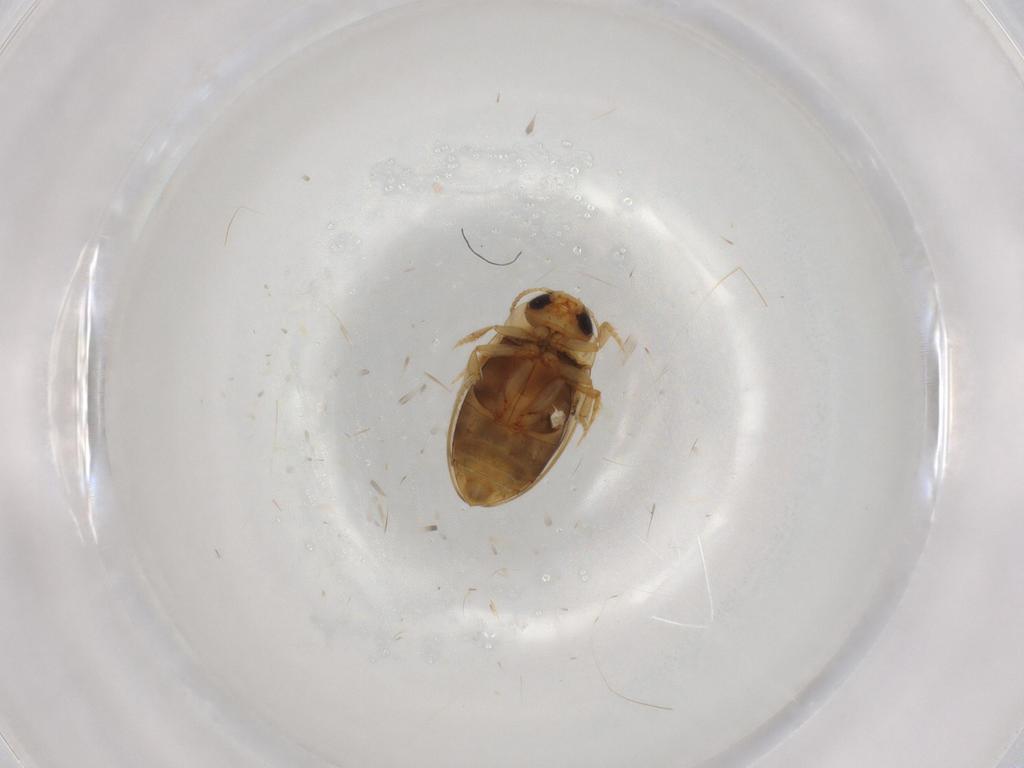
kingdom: Animalia
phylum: Arthropoda
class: Insecta
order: Coleoptera
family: Dytiscidae
